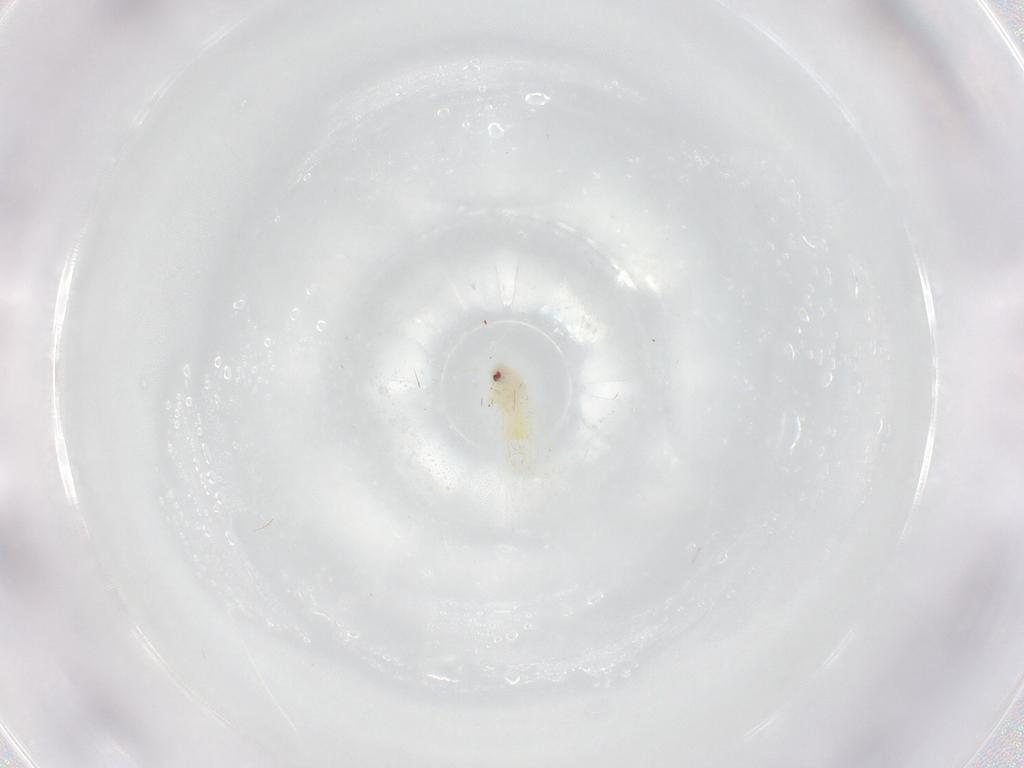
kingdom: Animalia
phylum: Arthropoda
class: Insecta
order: Hemiptera
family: Aleyrodidae
